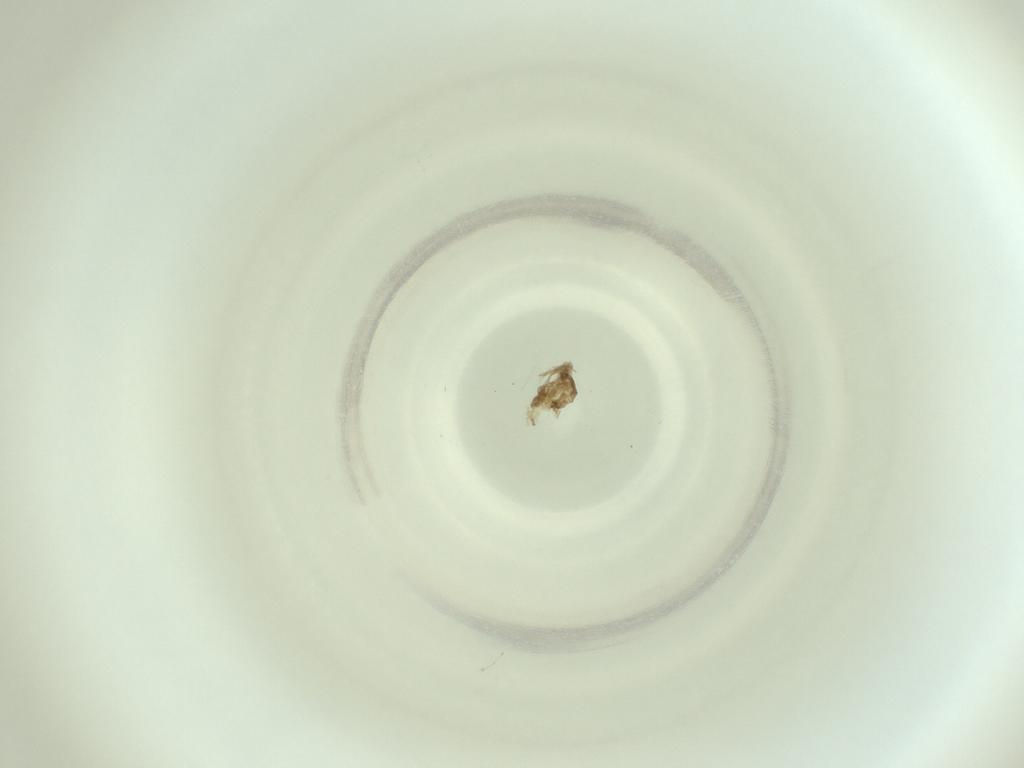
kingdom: Animalia
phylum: Arthropoda
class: Insecta
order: Diptera
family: Cecidomyiidae
